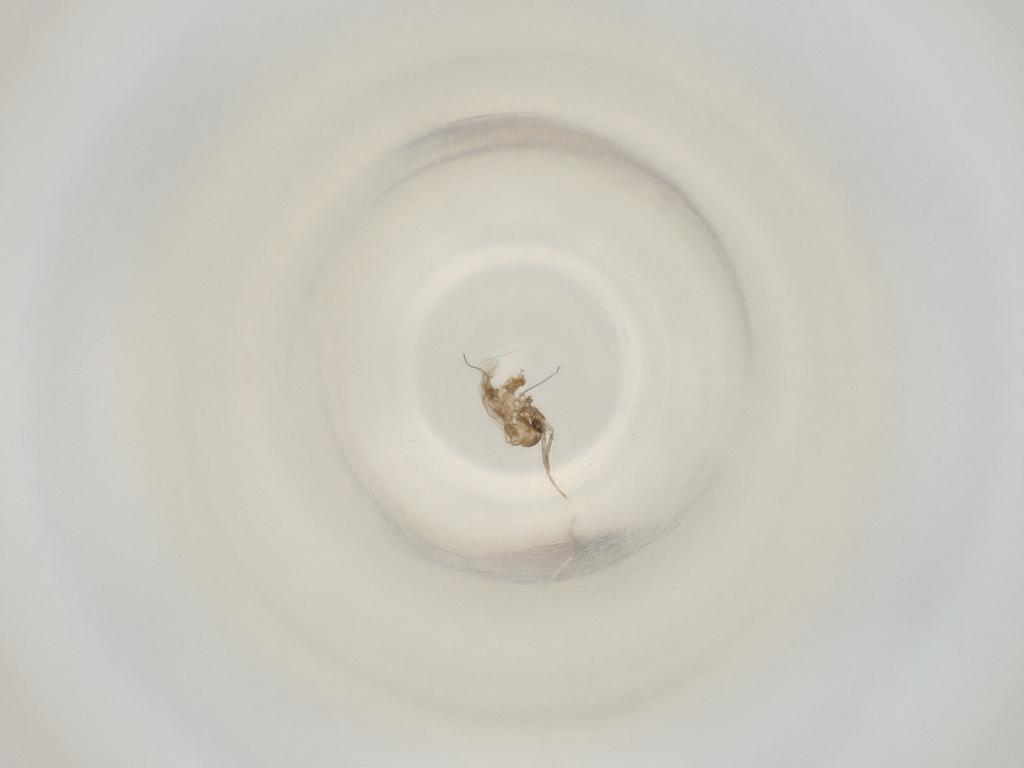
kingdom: Animalia
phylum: Arthropoda
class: Insecta
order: Diptera
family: Cecidomyiidae
